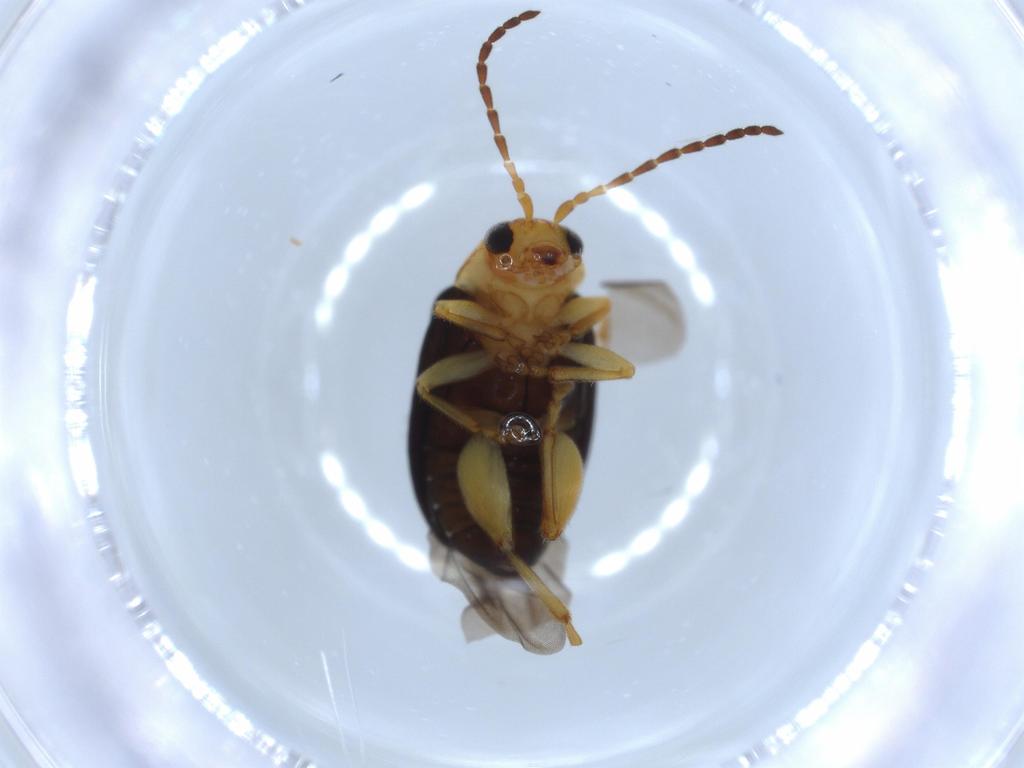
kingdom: Animalia
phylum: Arthropoda
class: Insecta
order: Coleoptera
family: Chrysomelidae
